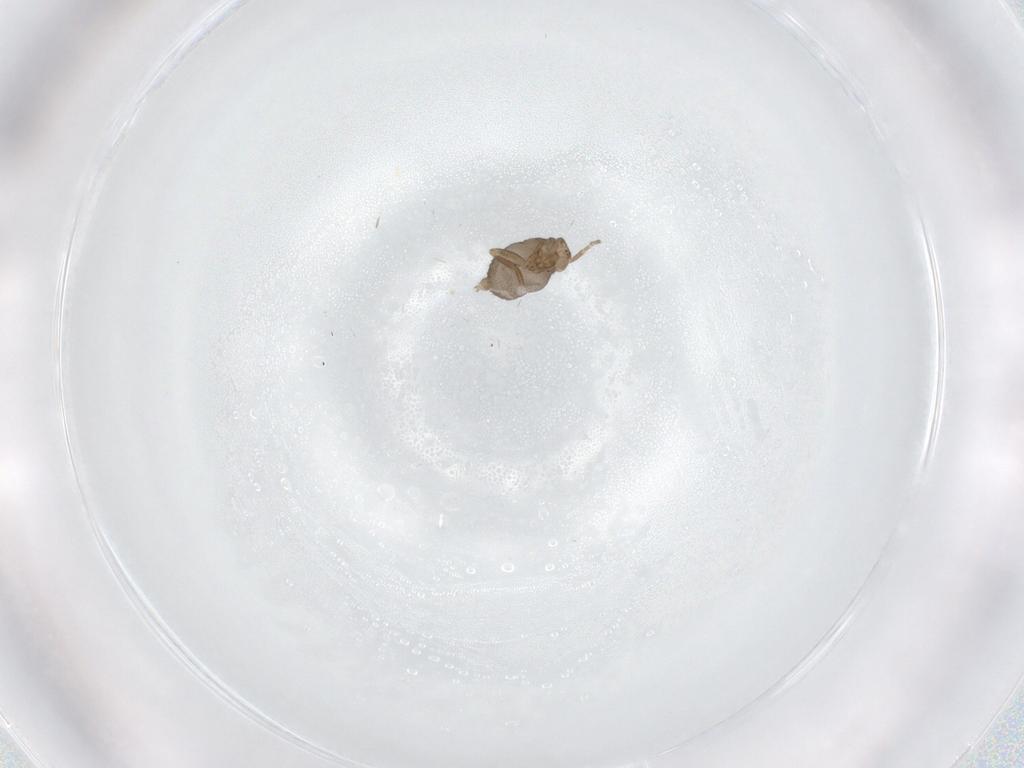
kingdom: Animalia
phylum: Arthropoda
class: Insecta
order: Diptera
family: Phoridae
